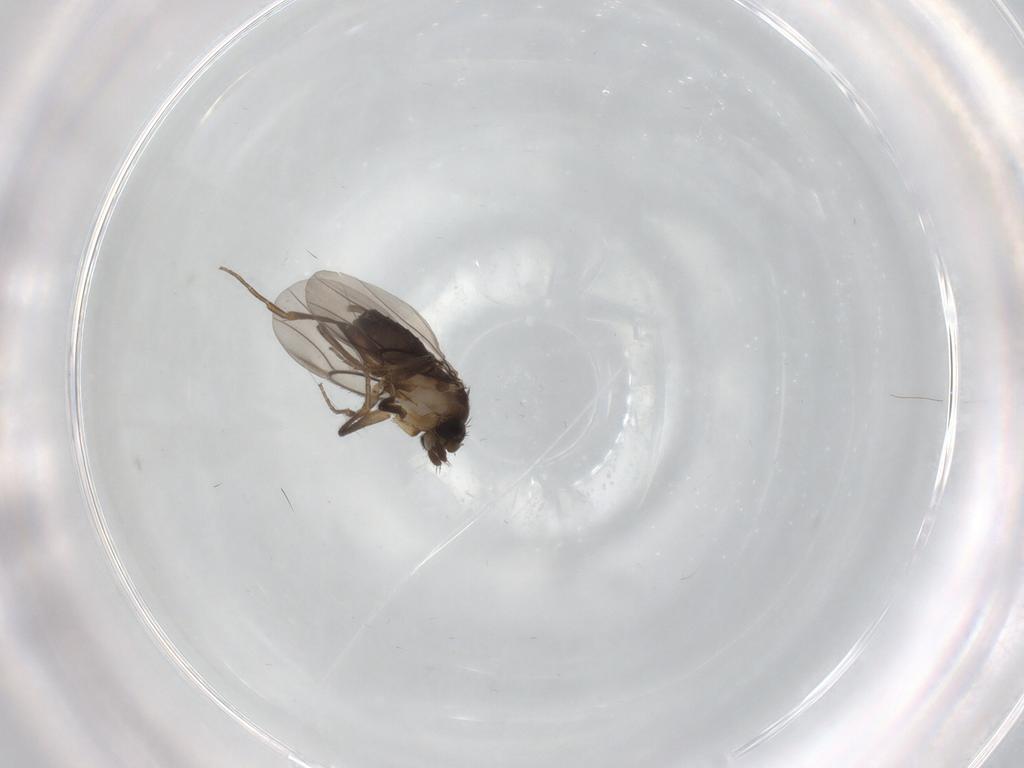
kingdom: Animalia
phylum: Arthropoda
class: Insecta
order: Diptera
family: Phoridae
